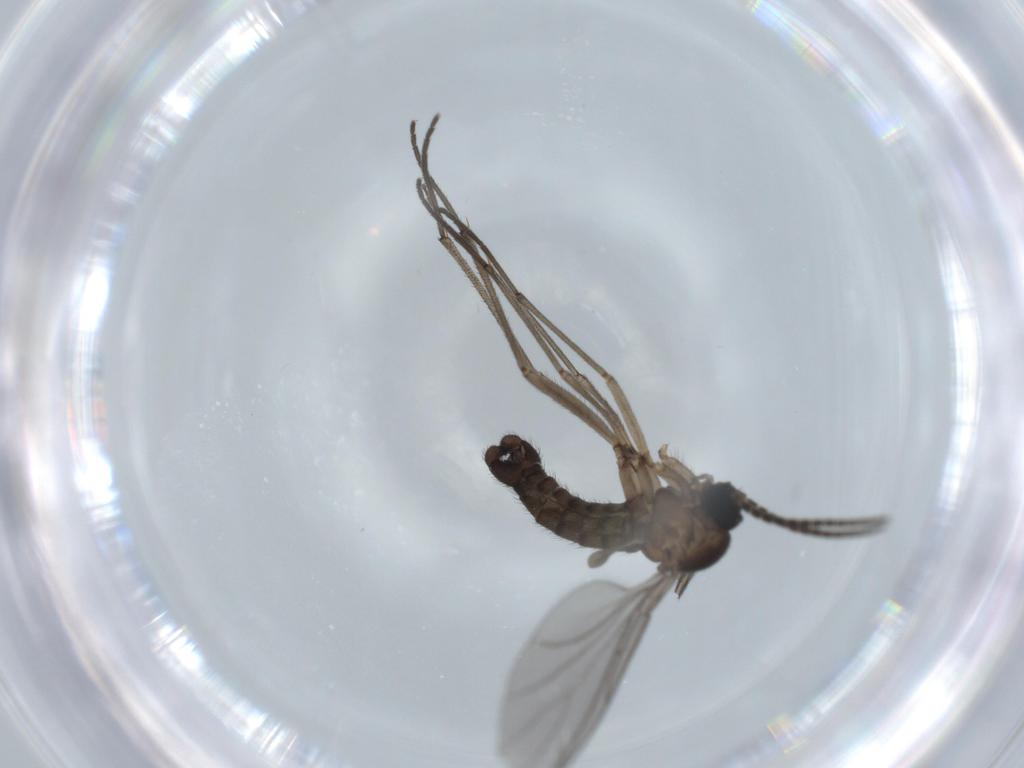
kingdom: Animalia
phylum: Arthropoda
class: Insecta
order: Diptera
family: Sciaridae
